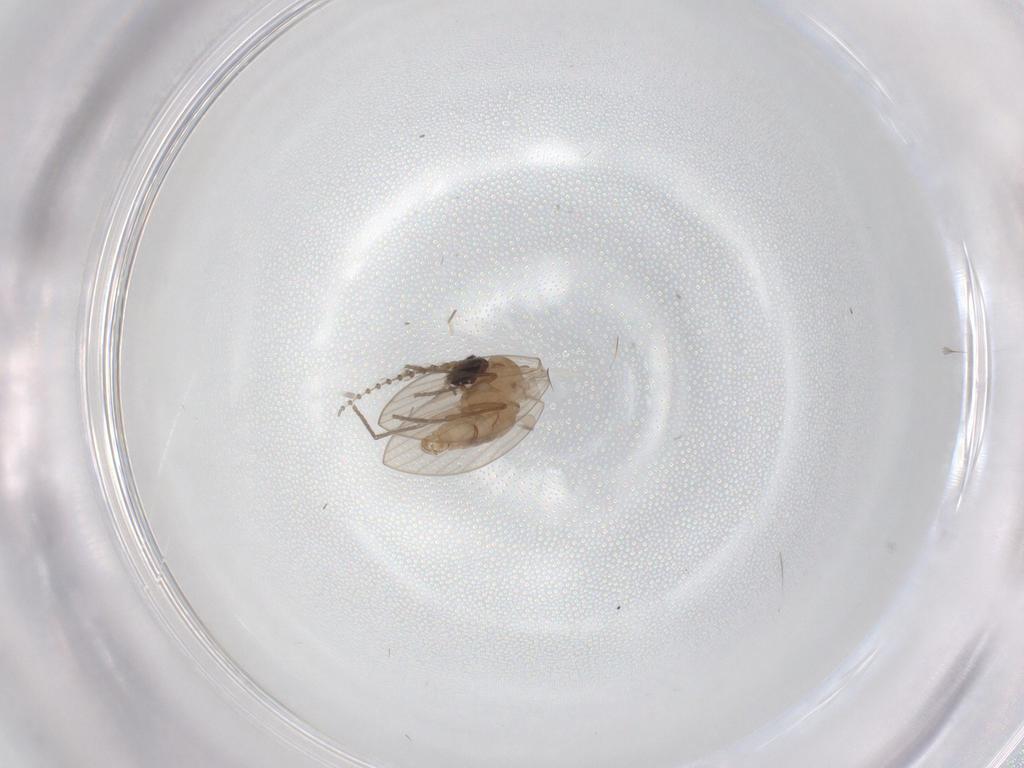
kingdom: Animalia
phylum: Arthropoda
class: Insecta
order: Diptera
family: Psychodidae
